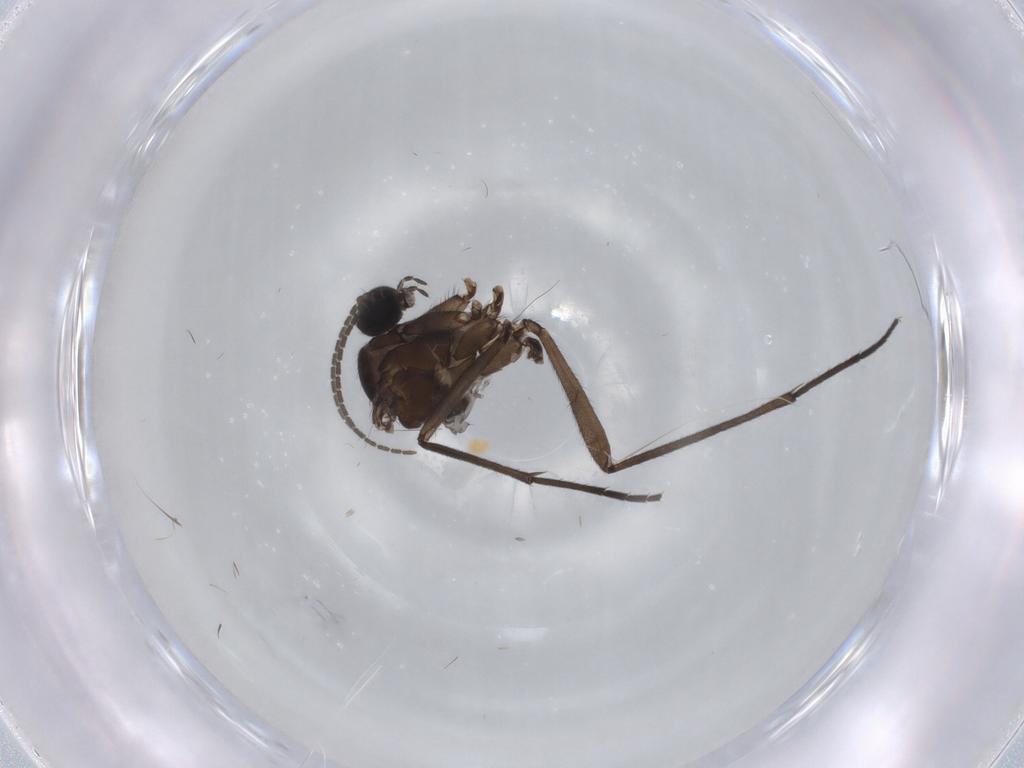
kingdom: Animalia
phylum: Arthropoda
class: Insecta
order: Diptera
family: Sciaridae
